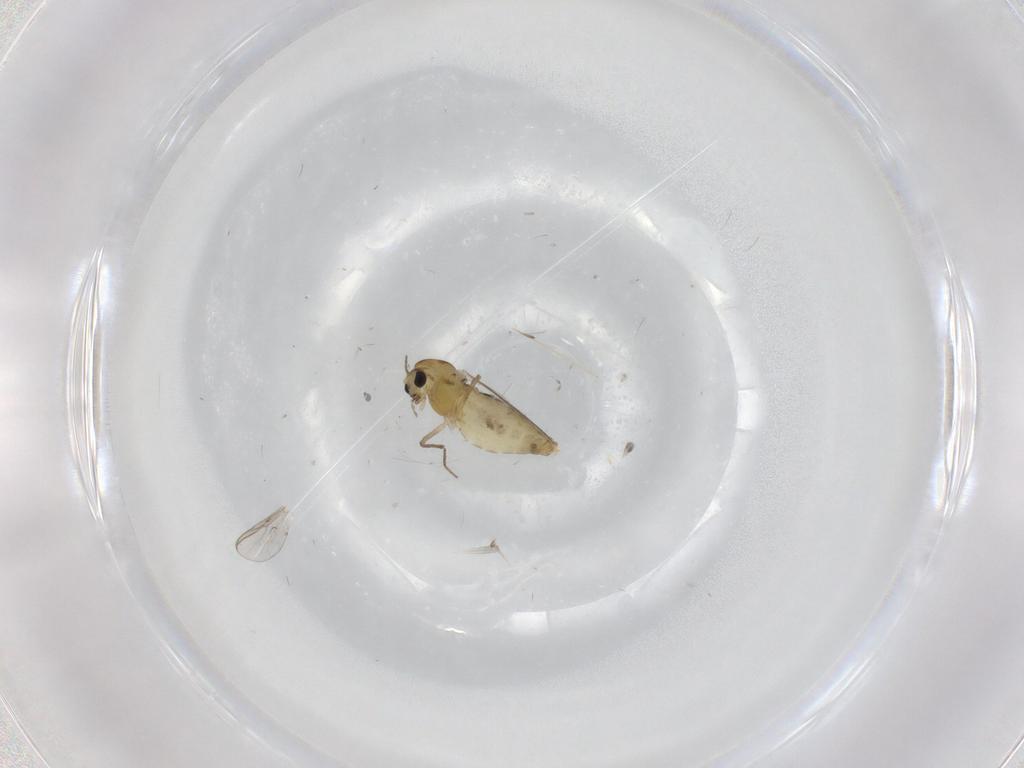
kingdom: Animalia
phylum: Arthropoda
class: Insecta
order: Diptera
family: Chironomidae
